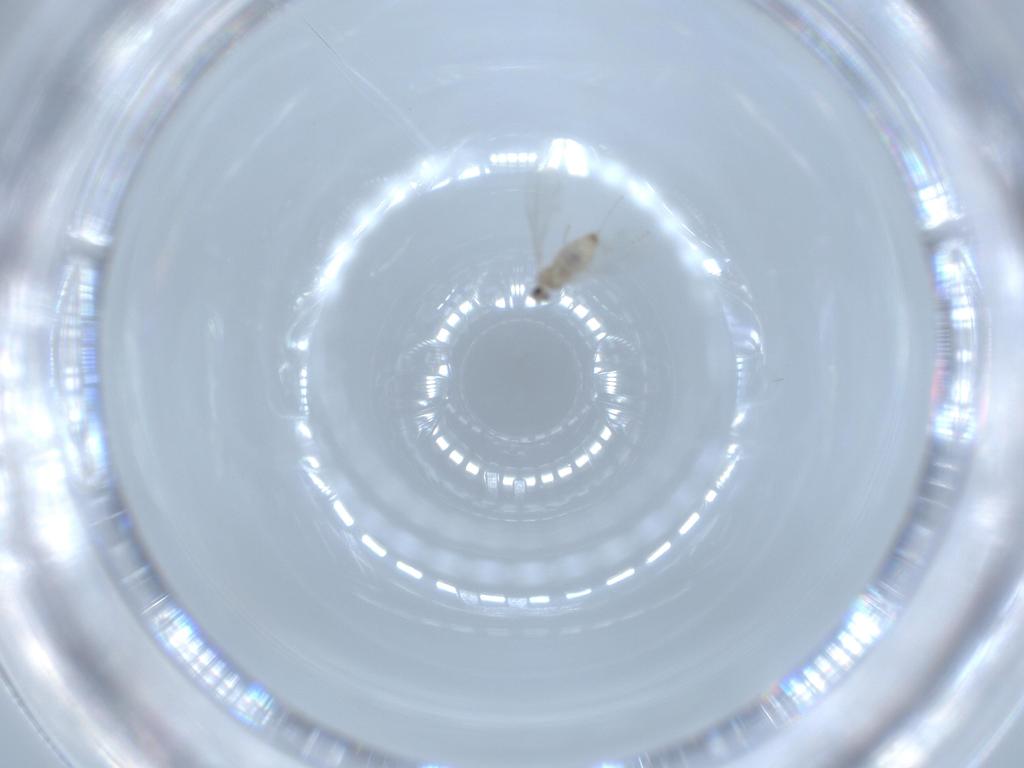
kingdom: Animalia
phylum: Arthropoda
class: Insecta
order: Diptera
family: Cecidomyiidae
